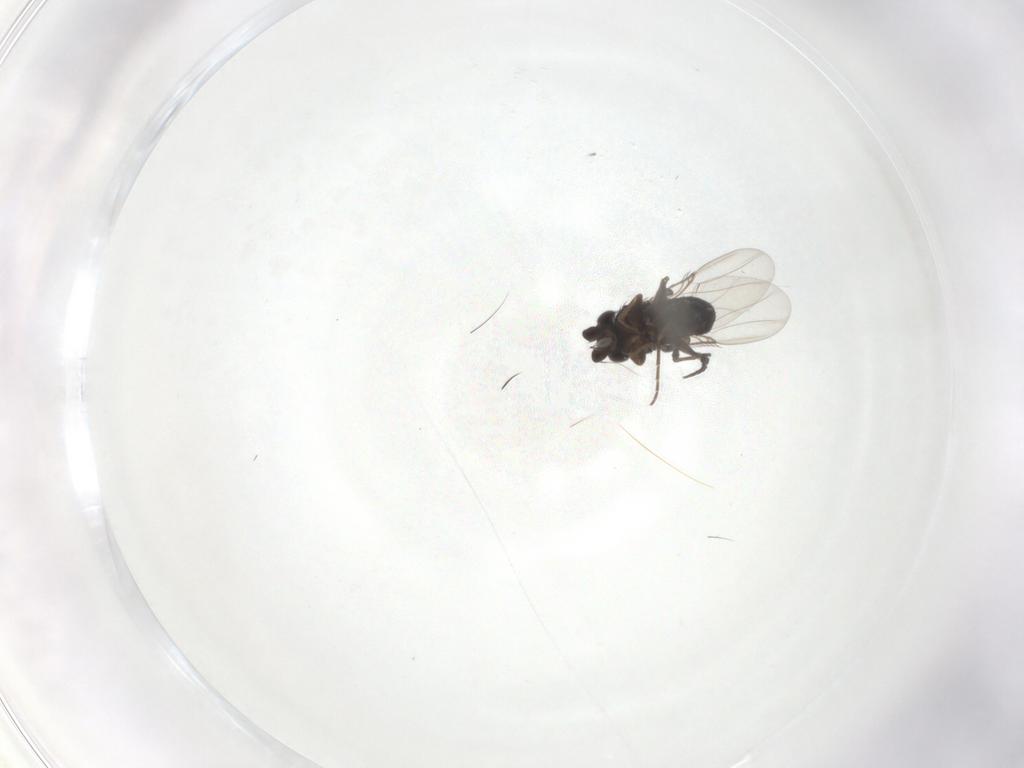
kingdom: Animalia
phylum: Arthropoda
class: Insecta
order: Diptera
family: Phoridae
